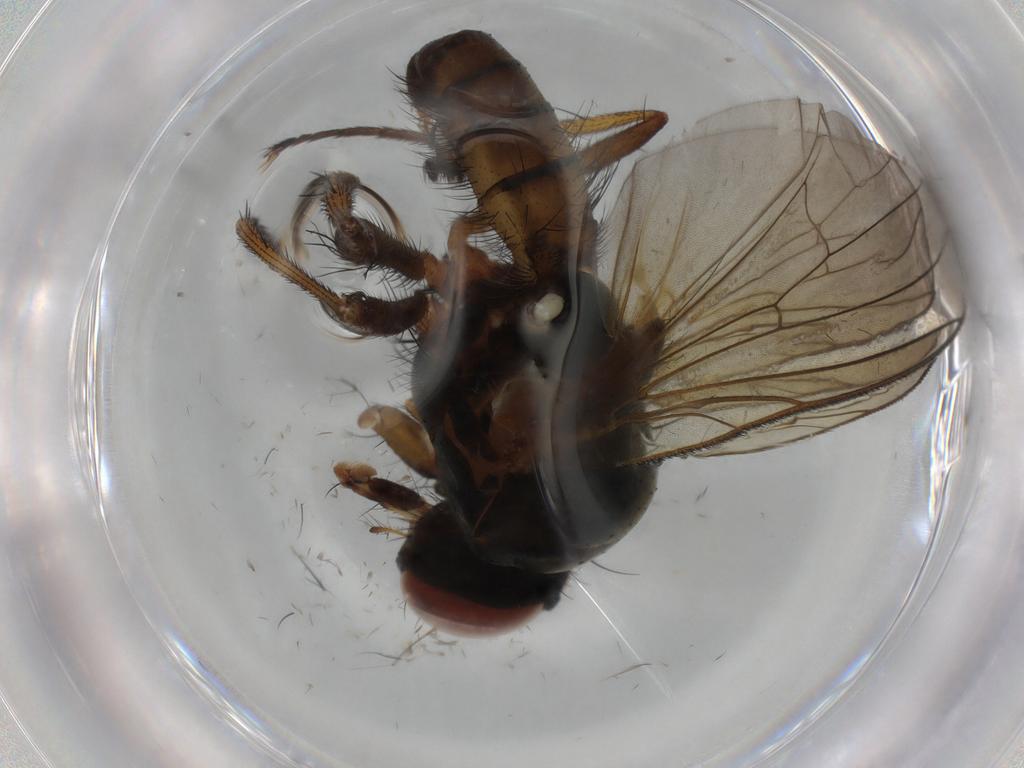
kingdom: Animalia
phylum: Arthropoda
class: Insecta
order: Diptera
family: Anthomyiidae
